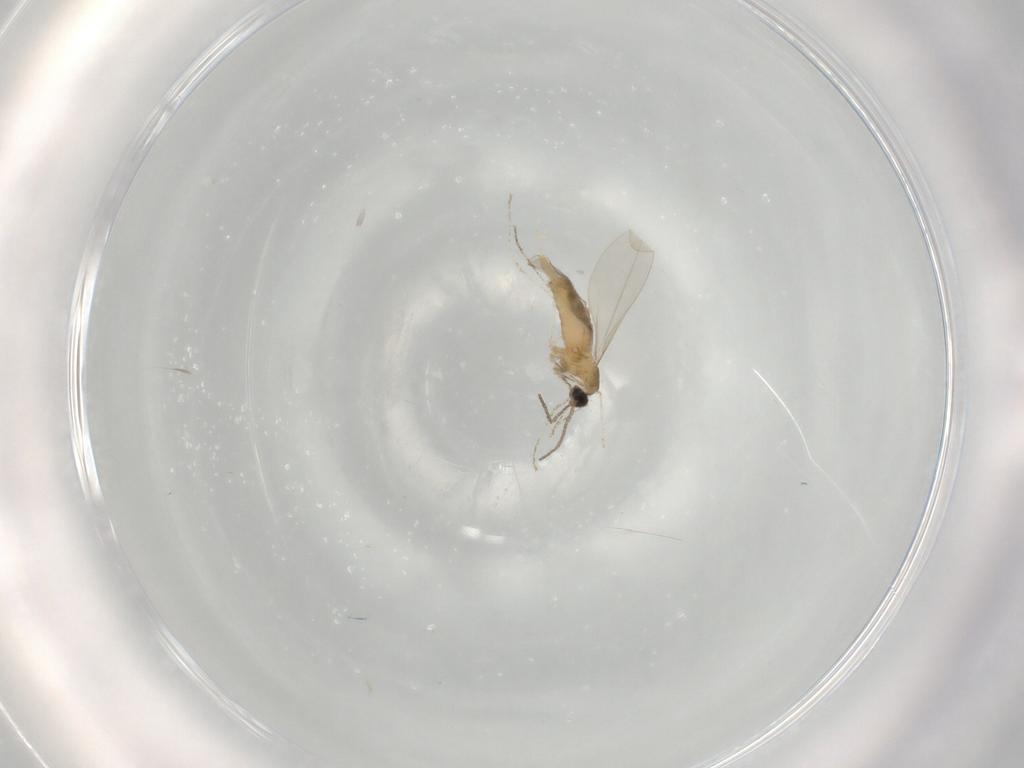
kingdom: Animalia
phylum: Arthropoda
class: Insecta
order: Diptera
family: Cecidomyiidae
